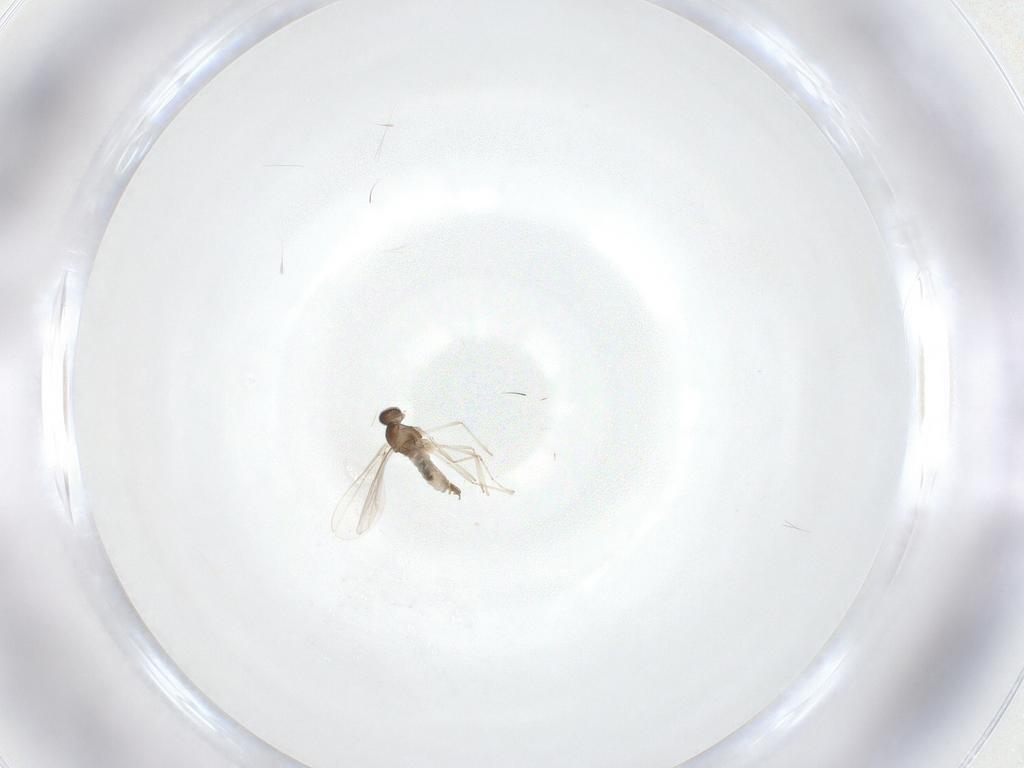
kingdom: Animalia
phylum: Arthropoda
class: Insecta
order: Diptera
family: Cecidomyiidae
